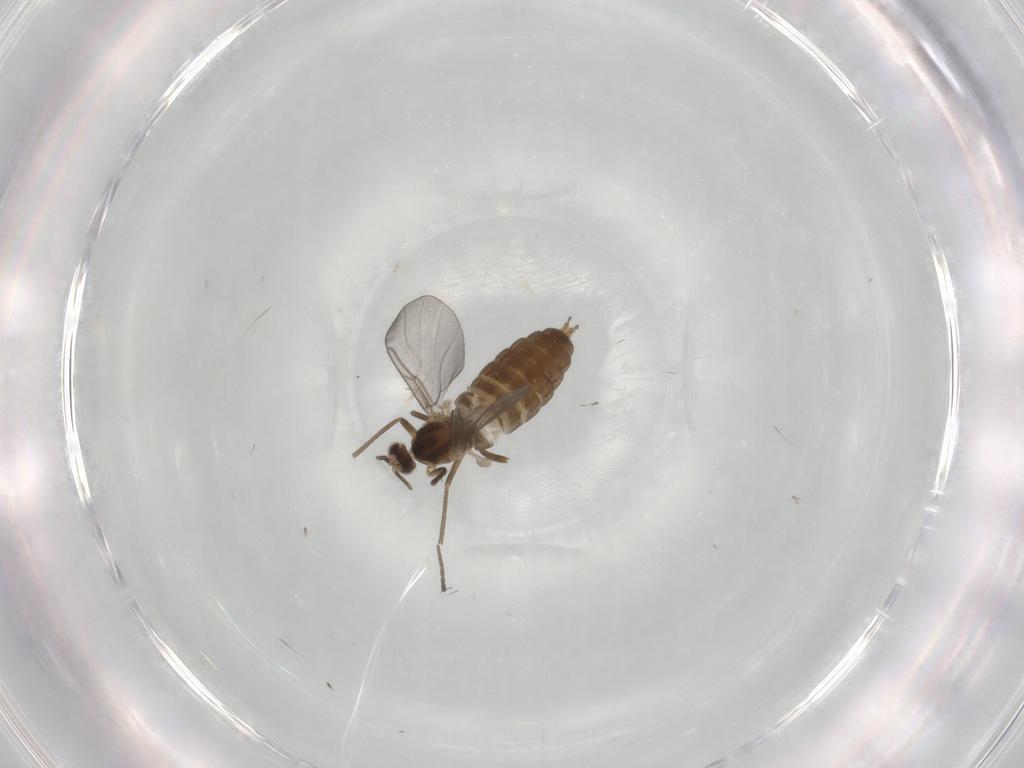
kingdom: Animalia
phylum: Arthropoda
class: Insecta
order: Diptera
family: Cecidomyiidae
